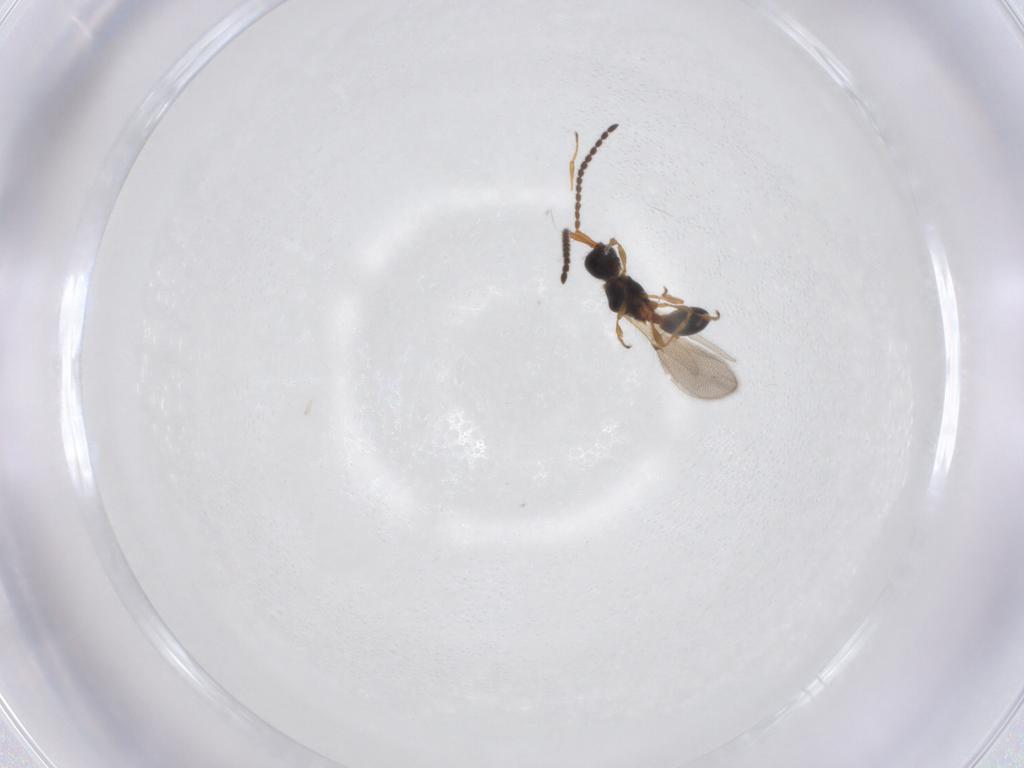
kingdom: Animalia
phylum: Arthropoda
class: Insecta
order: Hymenoptera
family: Diapriidae
